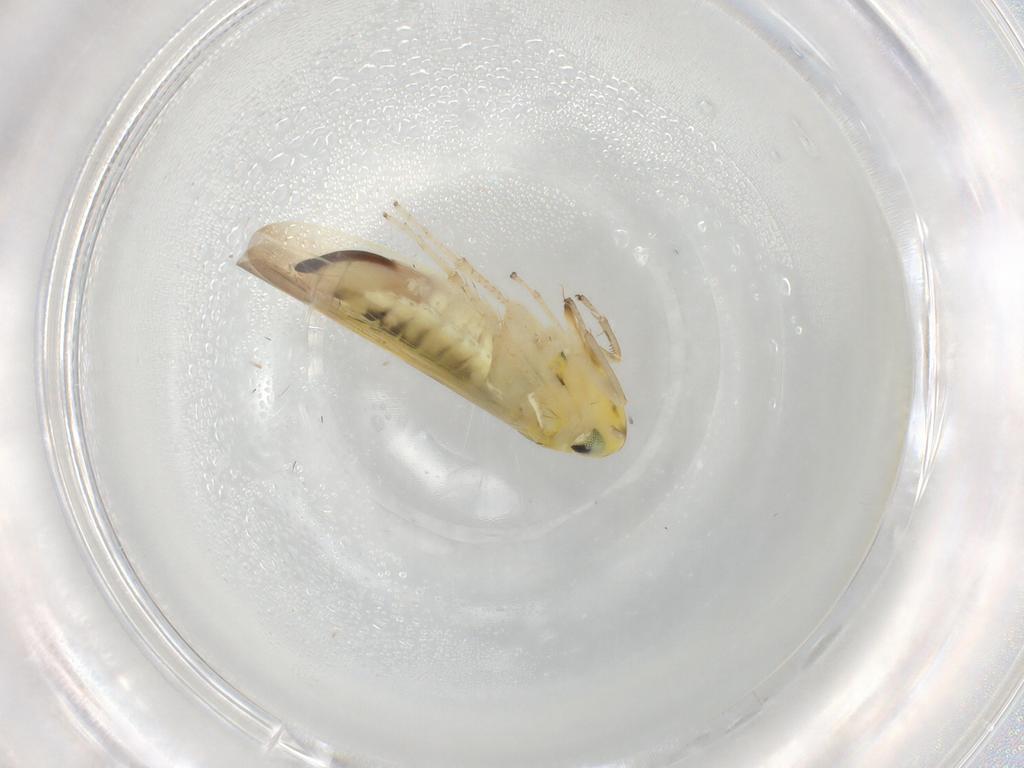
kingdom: Animalia
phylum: Arthropoda
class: Insecta
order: Hemiptera
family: Cicadellidae
